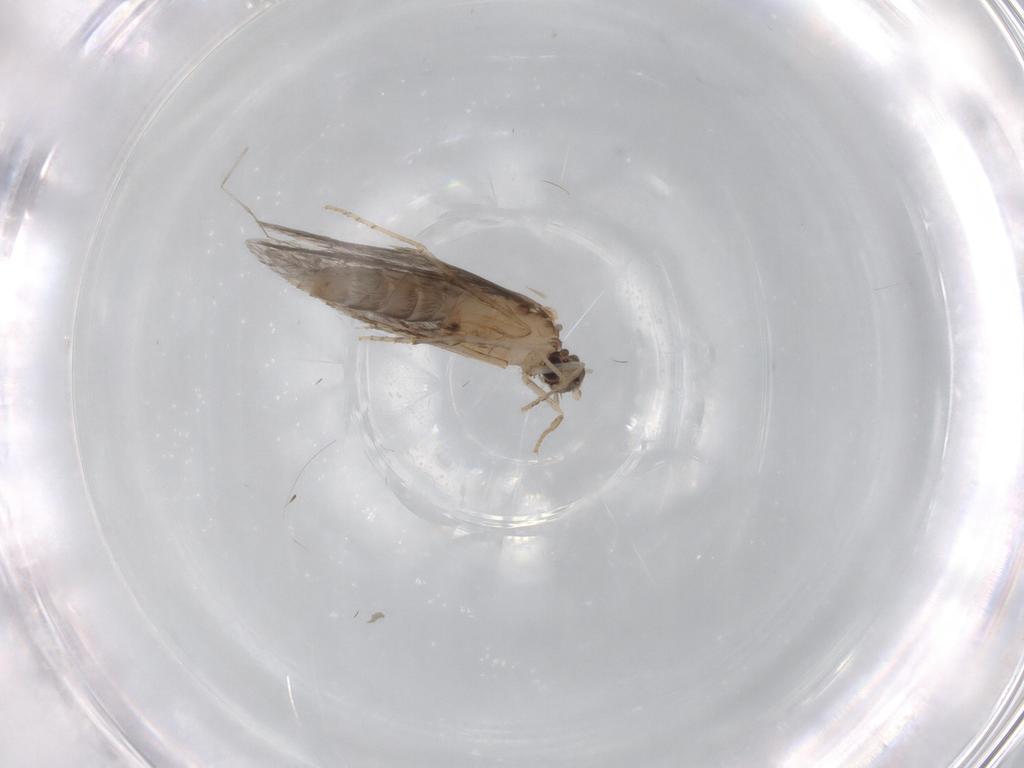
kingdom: Animalia
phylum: Arthropoda
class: Insecta
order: Trichoptera
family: Hydroptilidae
